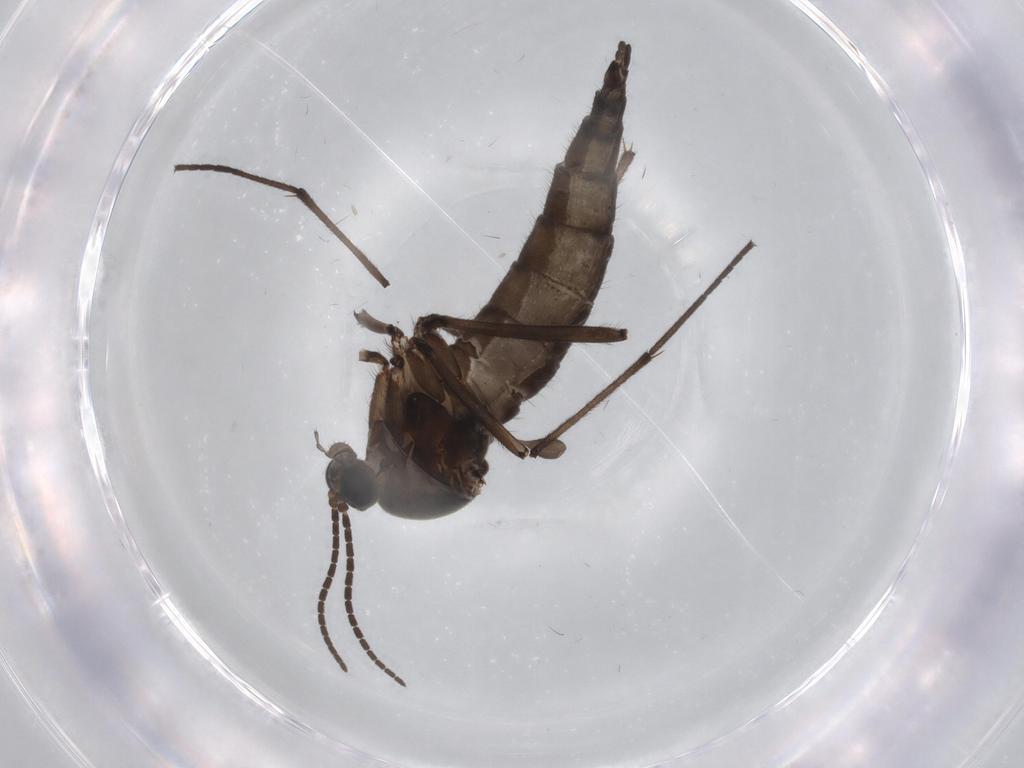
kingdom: Animalia
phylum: Arthropoda
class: Insecta
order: Diptera
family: Sciaridae
